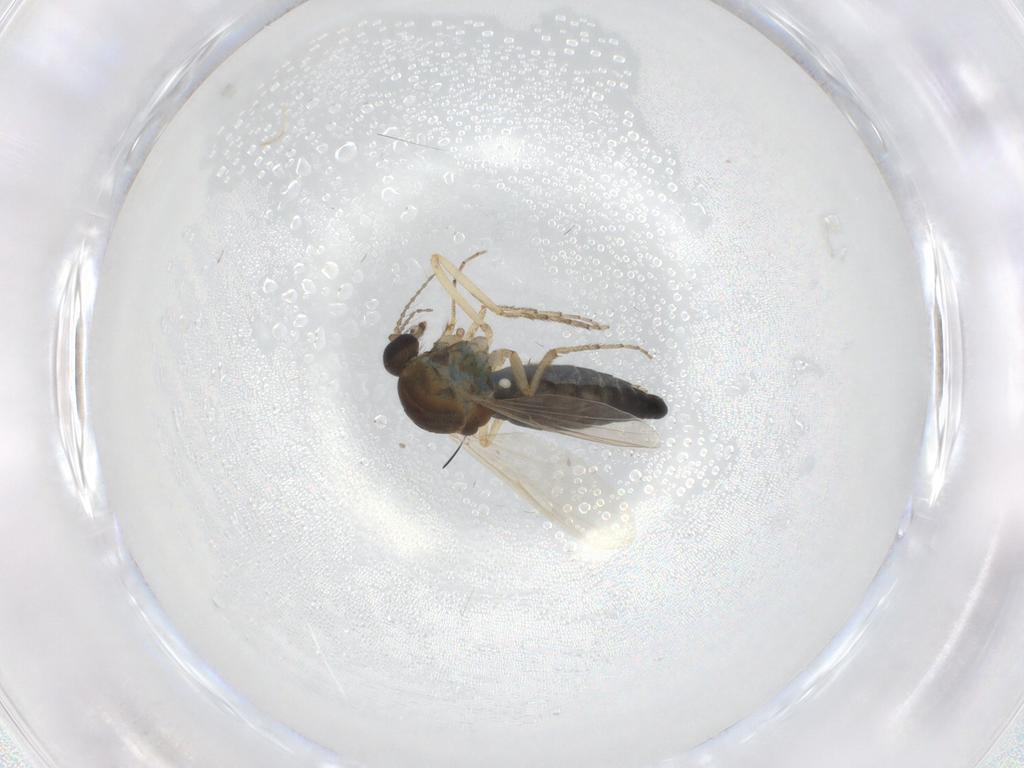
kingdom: Animalia
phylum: Arthropoda
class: Insecta
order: Diptera
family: Ceratopogonidae
